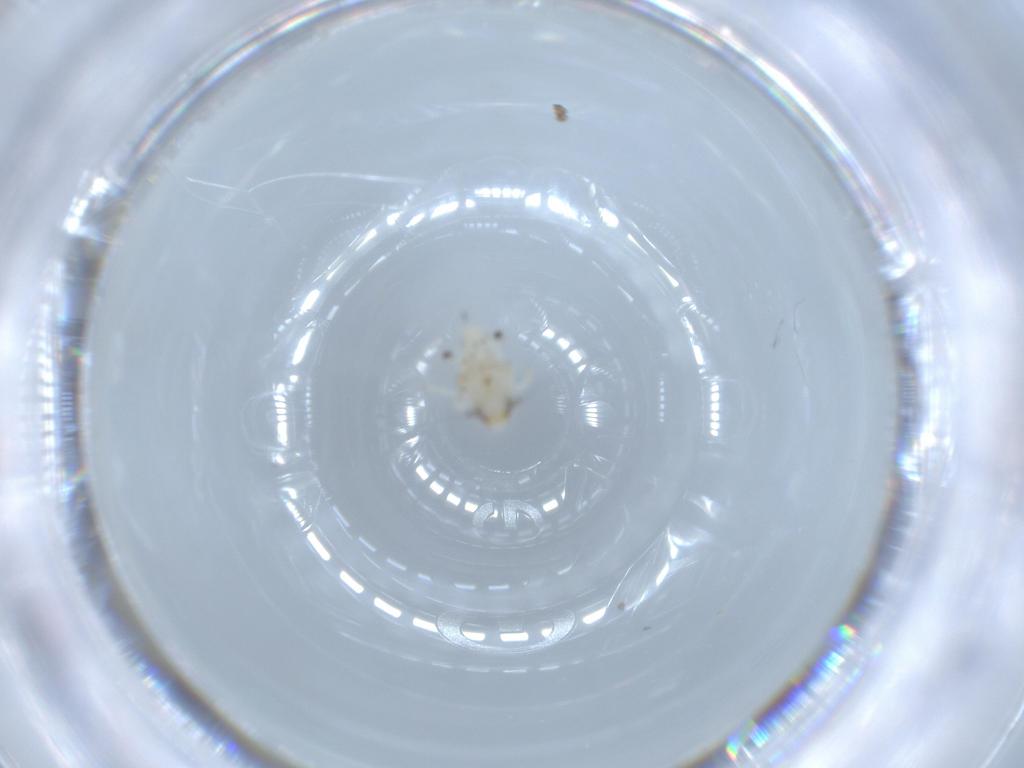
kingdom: Animalia
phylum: Arthropoda
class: Insecta
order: Hemiptera
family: Nogodinidae
